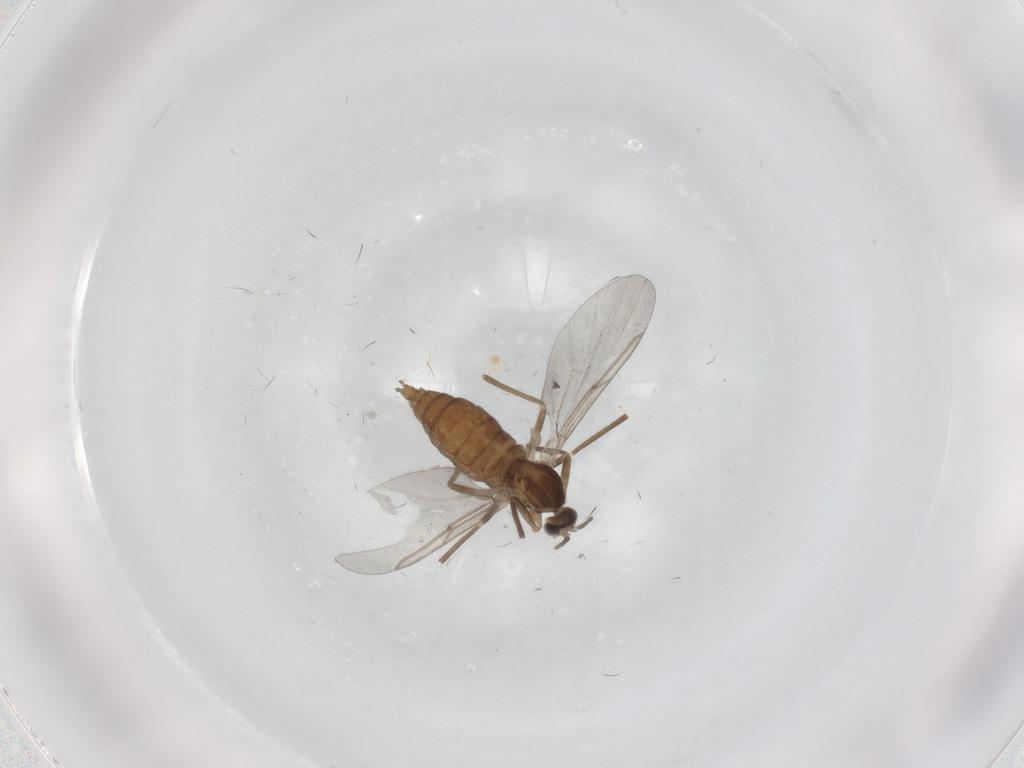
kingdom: Animalia
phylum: Arthropoda
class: Insecta
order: Diptera
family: Cecidomyiidae
